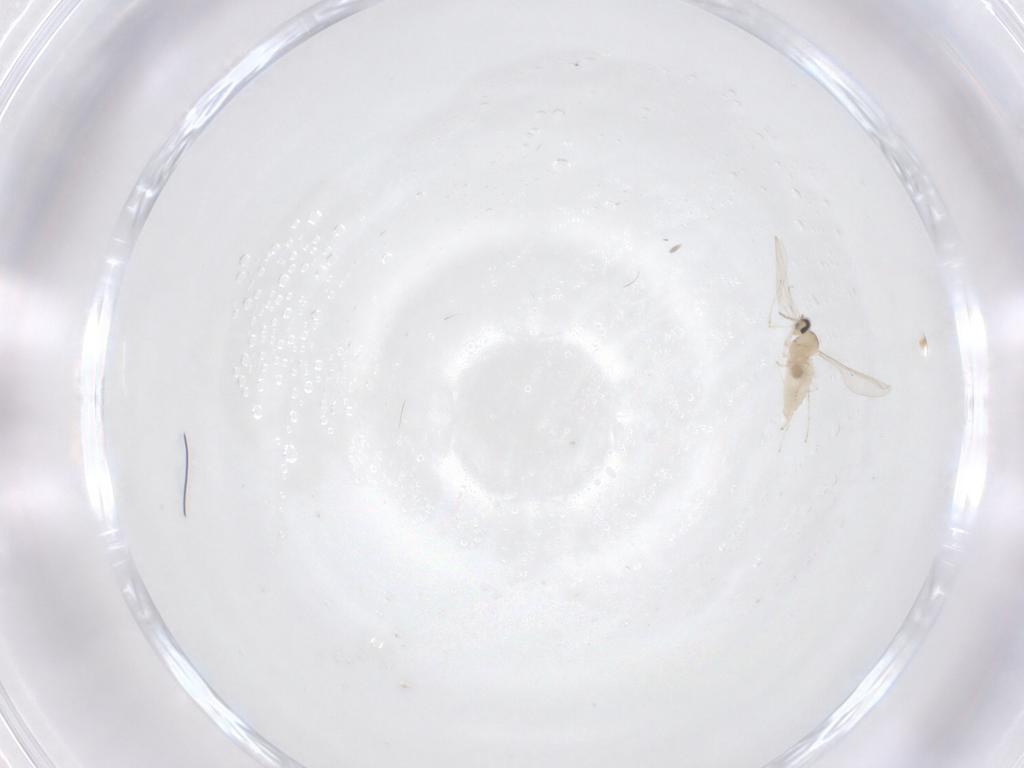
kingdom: Animalia
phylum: Arthropoda
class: Insecta
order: Diptera
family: Cecidomyiidae
